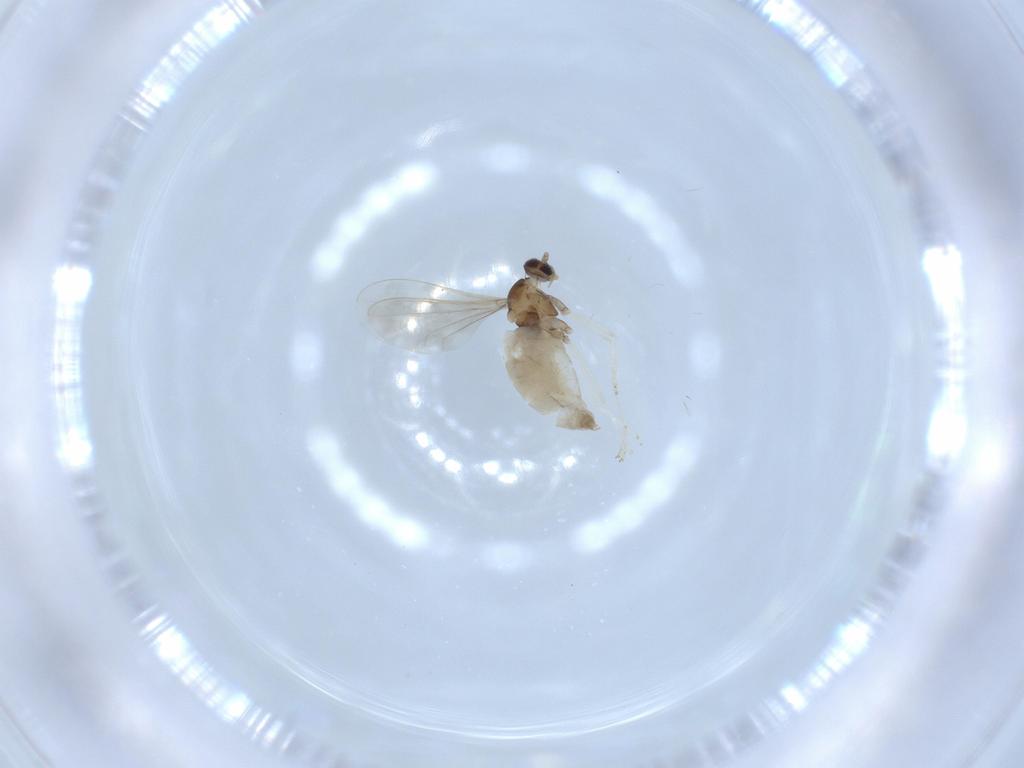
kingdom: Animalia
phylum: Arthropoda
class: Insecta
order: Diptera
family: Cecidomyiidae
